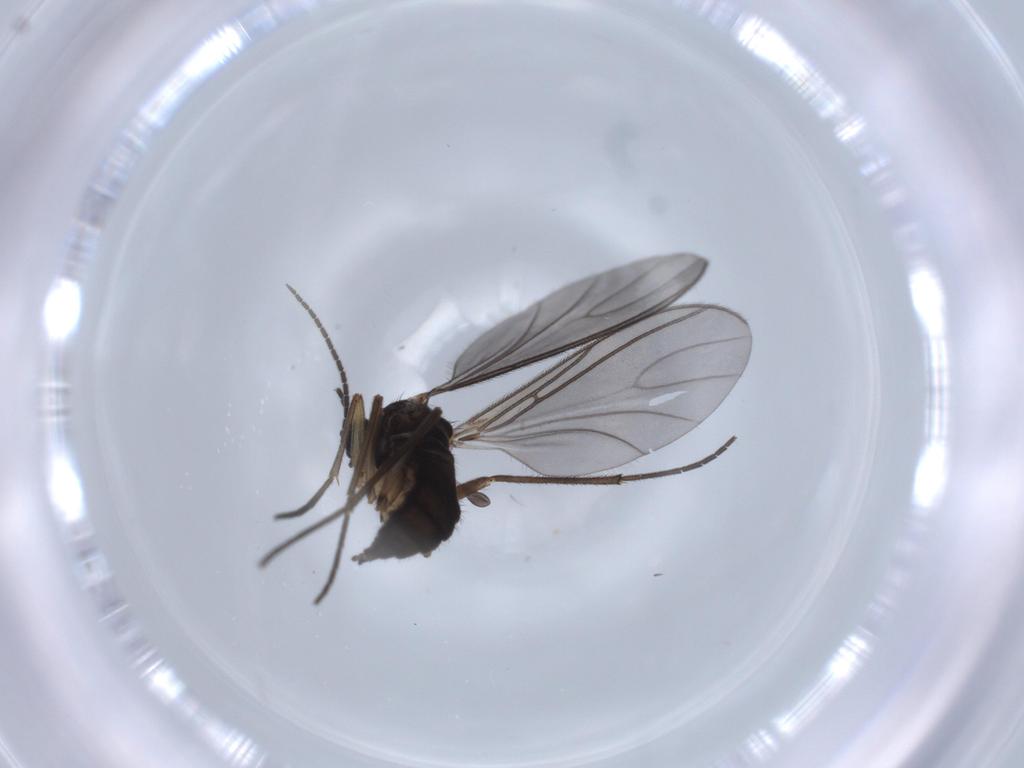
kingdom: Animalia
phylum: Arthropoda
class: Insecta
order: Diptera
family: Sciaridae
